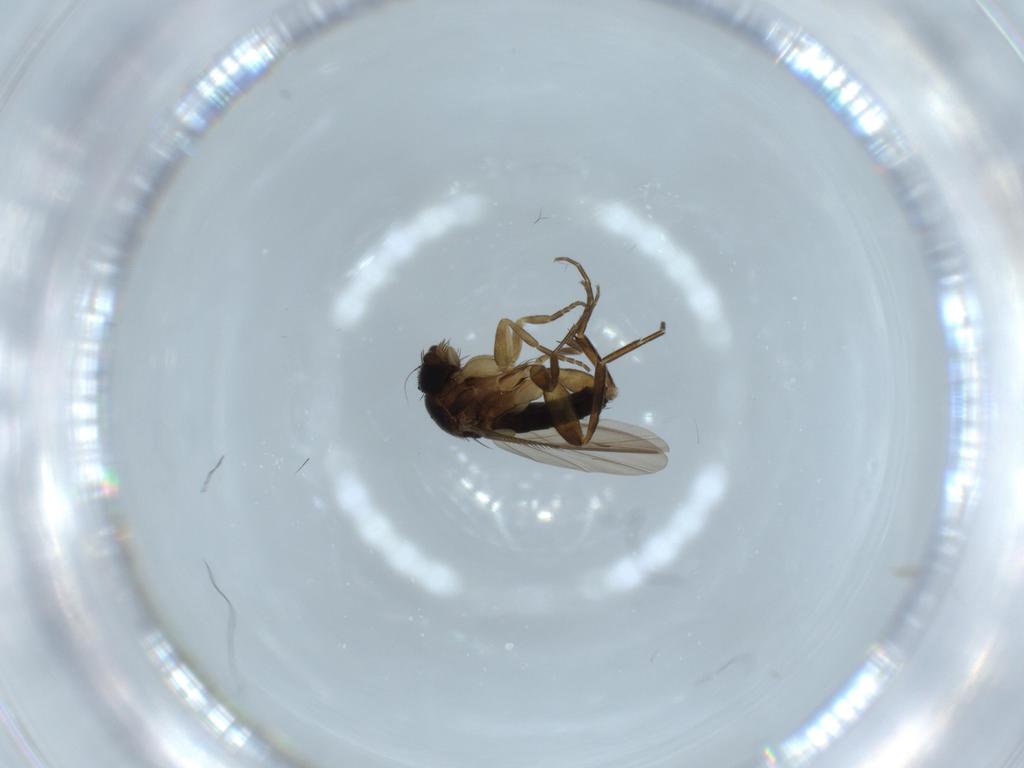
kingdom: Animalia
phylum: Arthropoda
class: Insecta
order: Diptera
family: Phoridae
